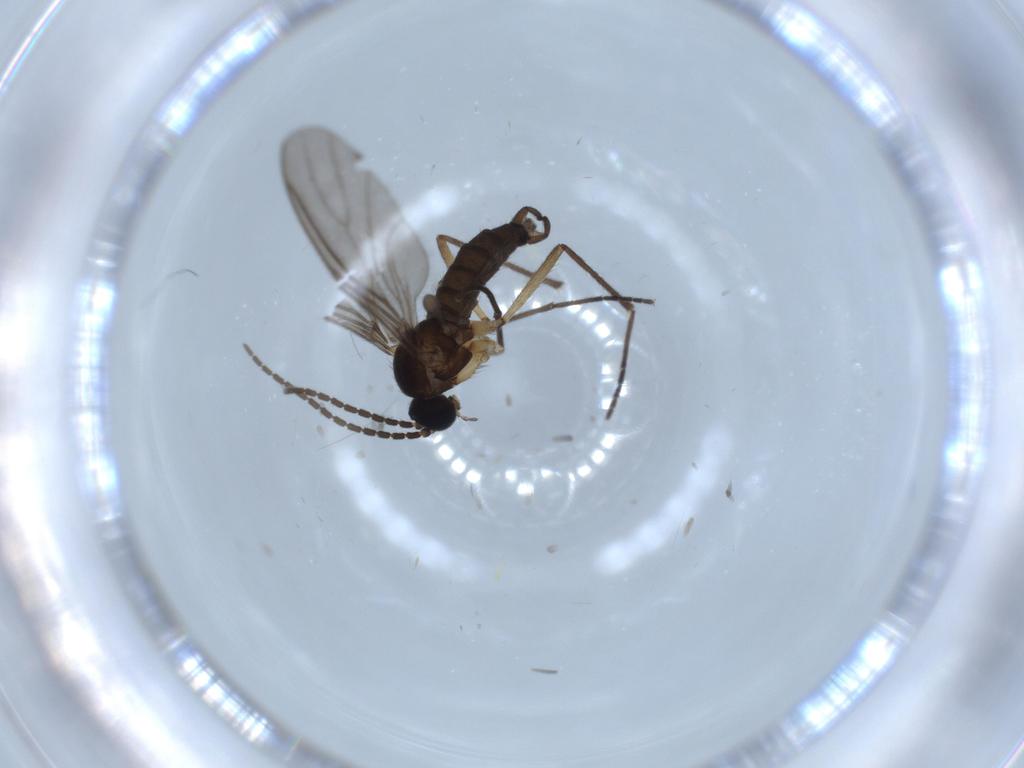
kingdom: Animalia
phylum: Arthropoda
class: Insecta
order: Diptera
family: Sciaridae
